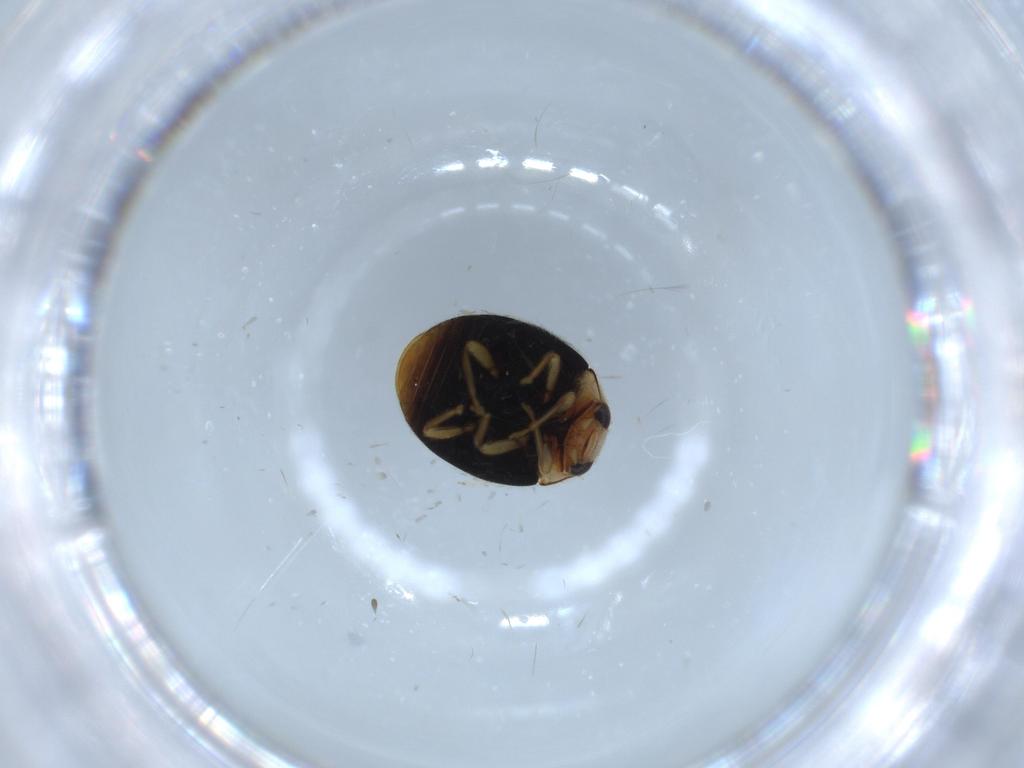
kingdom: Animalia
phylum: Arthropoda
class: Insecta
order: Coleoptera
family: Coccinellidae
